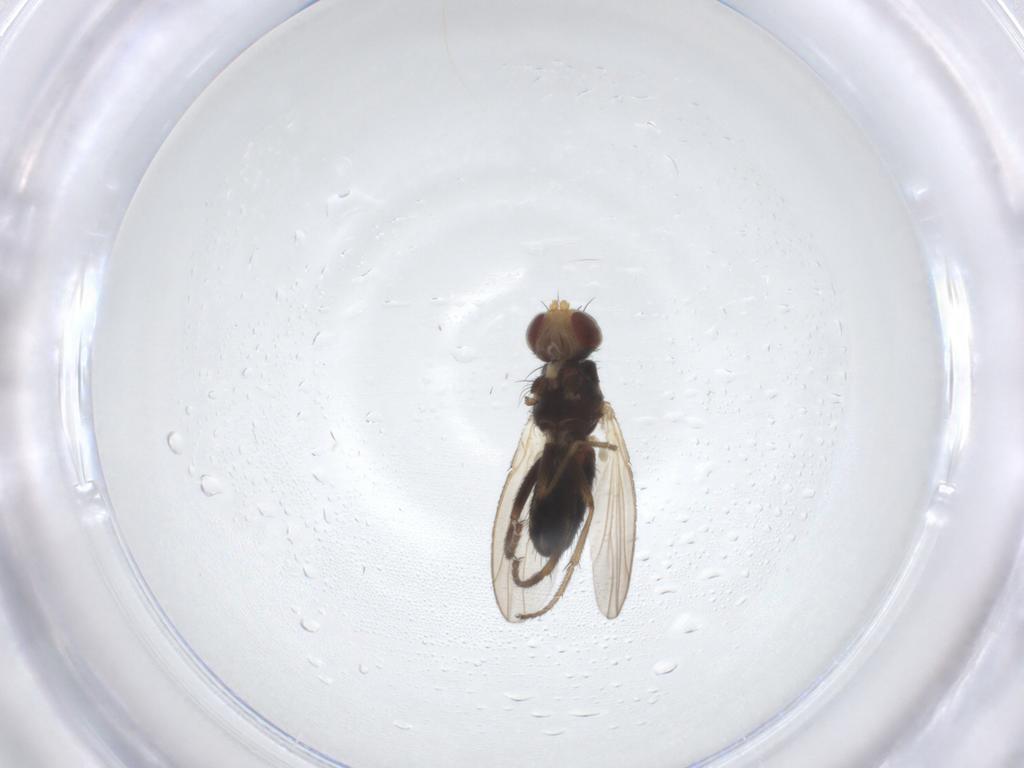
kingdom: Animalia
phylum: Arthropoda
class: Insecta
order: Diptera
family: Heleomyzidae
